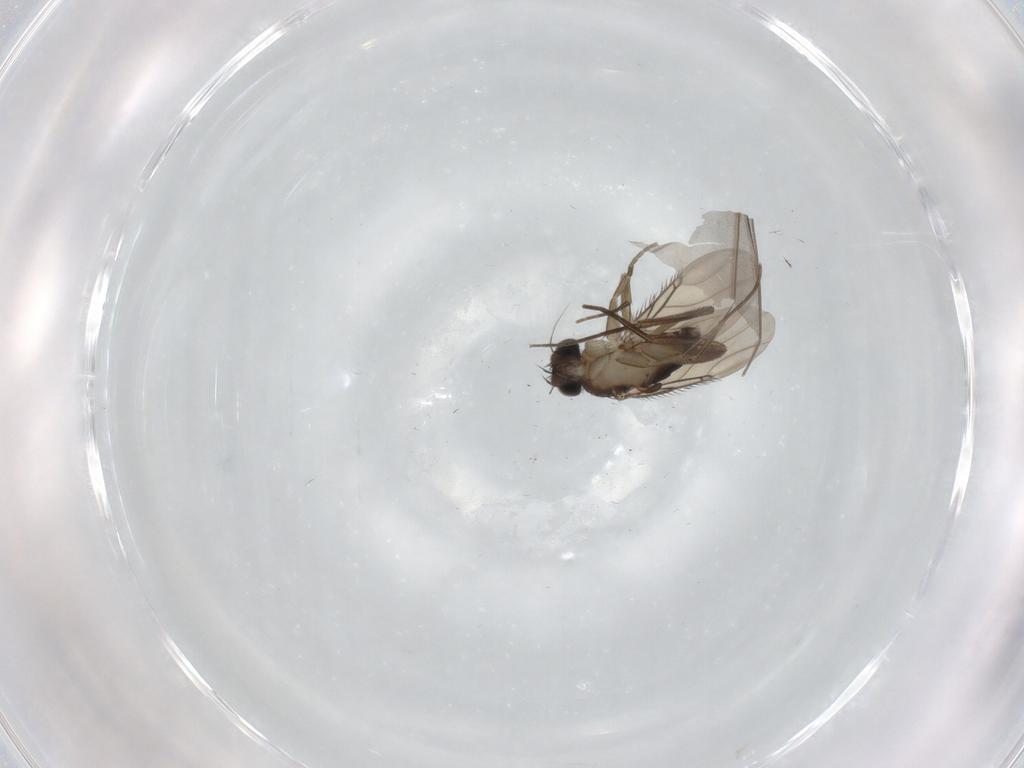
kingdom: Animalia
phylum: Arthropoda
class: Insecta
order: Diptera
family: Phoridae
